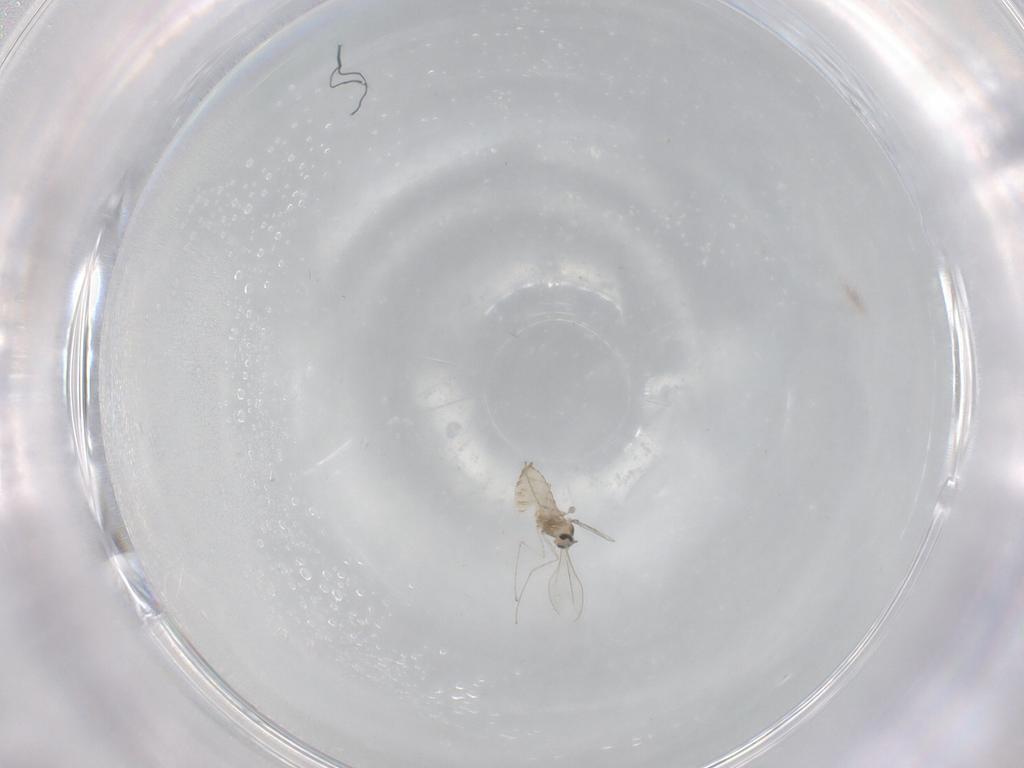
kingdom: Animalia
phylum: Arthropoda
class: Insecta
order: Diptera
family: Cecidomyiidae
